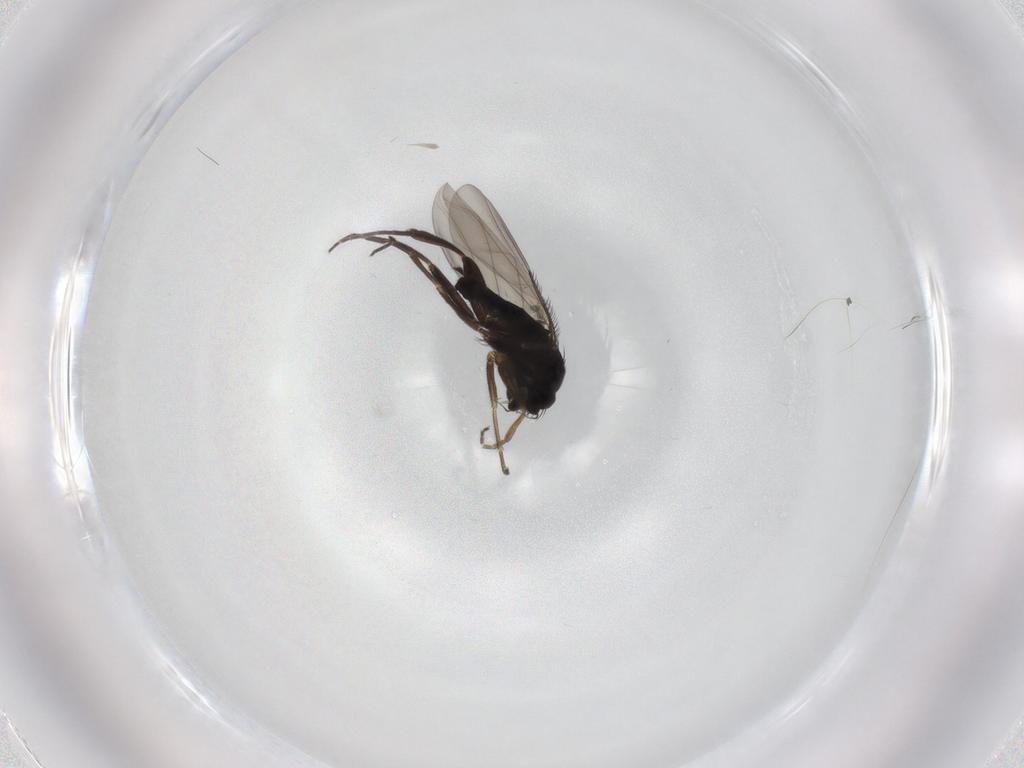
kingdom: Animalia
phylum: Arthropoda
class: Insecta
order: Diptera
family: Phoridae
